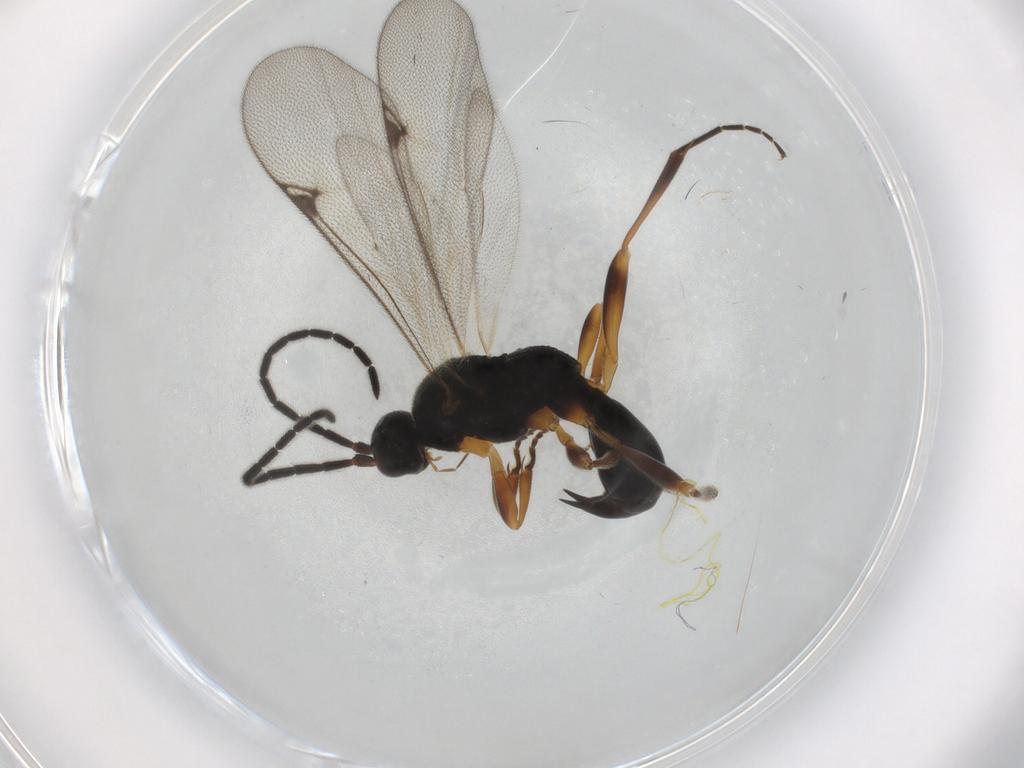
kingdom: Animalia
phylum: Arthropoda
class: Insecta
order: Hymenoptera
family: Proctotrupidae
